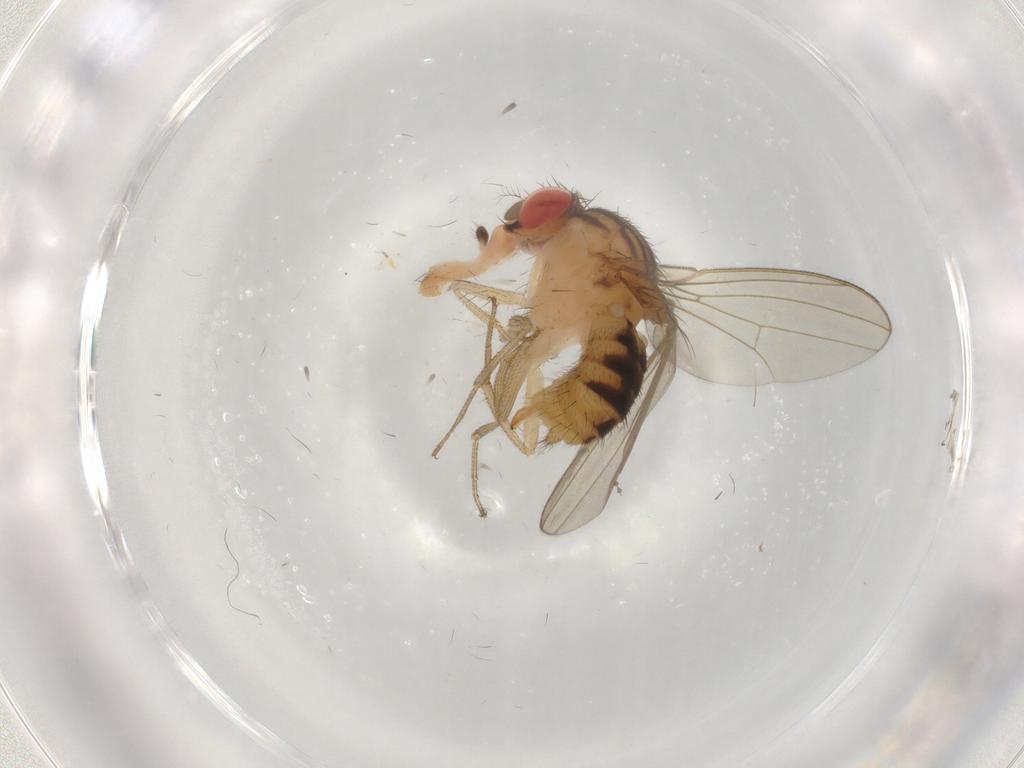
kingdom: Animalia
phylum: Arthropoda
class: Insecta
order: Diptera
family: Drosophilidae
